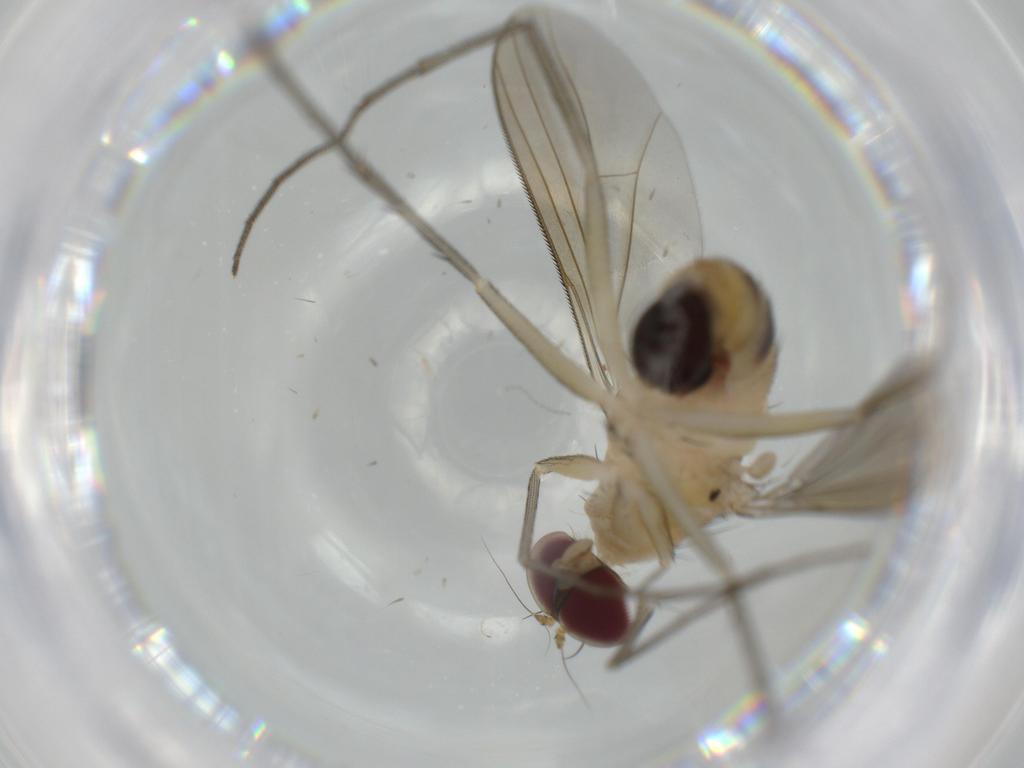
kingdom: Animalia
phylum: Arthropoda
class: Insecta
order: Diptera
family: Dolichopodidae
